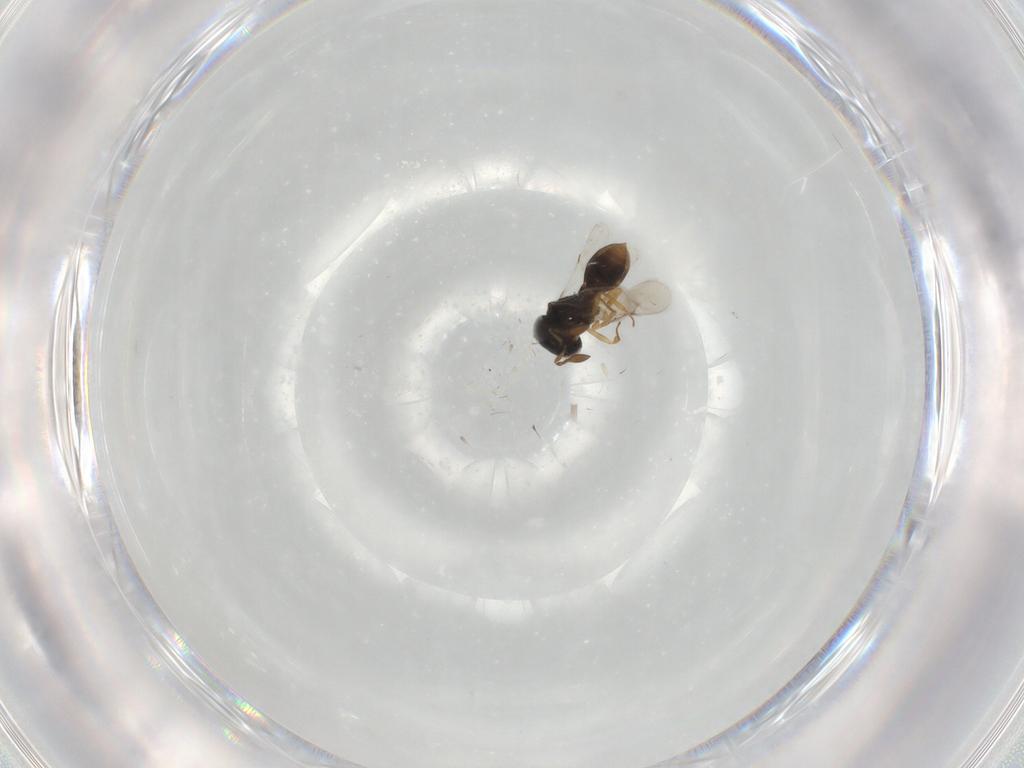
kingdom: Animalia
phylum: Arthropoda
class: Insecta
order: Hymenoptera
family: Scelionidae
